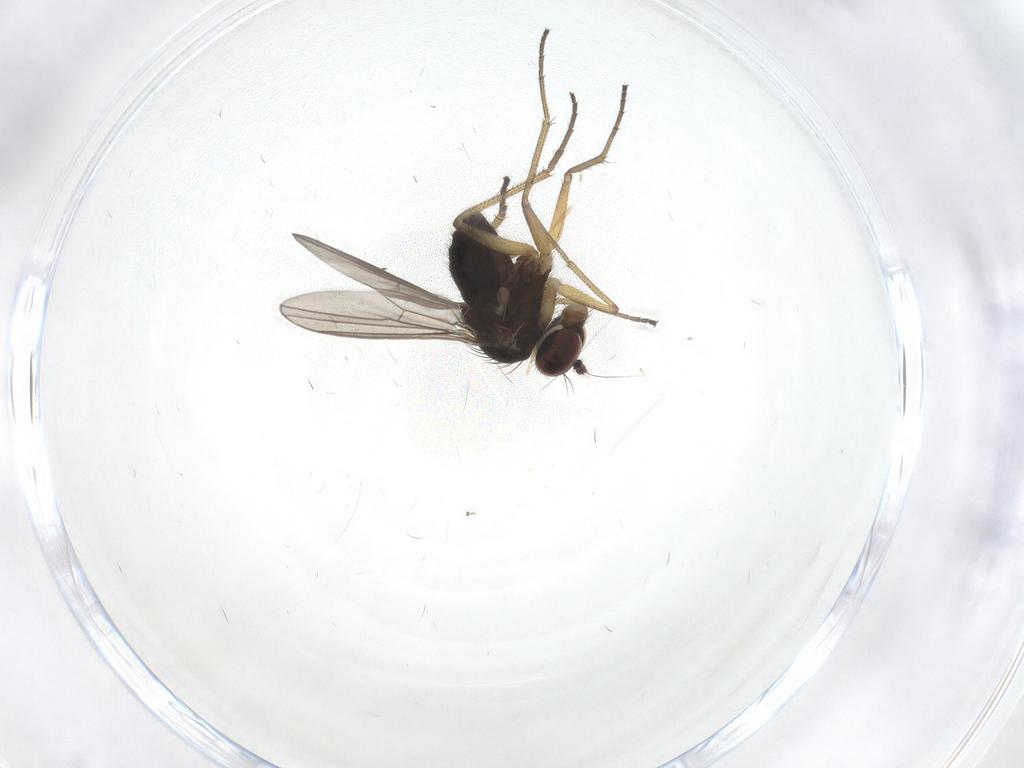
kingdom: Animalia
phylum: Arthropoda
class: Insecta
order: Diptera
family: Dolichopodidae
